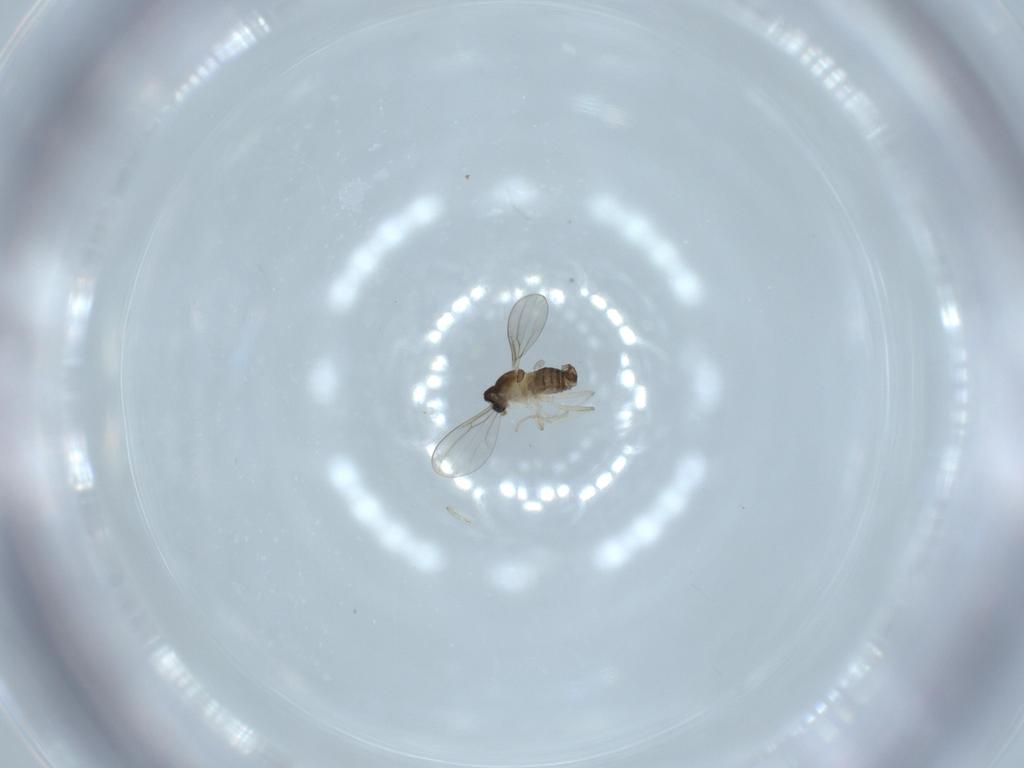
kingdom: Animalia
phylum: Arthropoda
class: Insecta
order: Diptera
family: Cecidomyiidae
